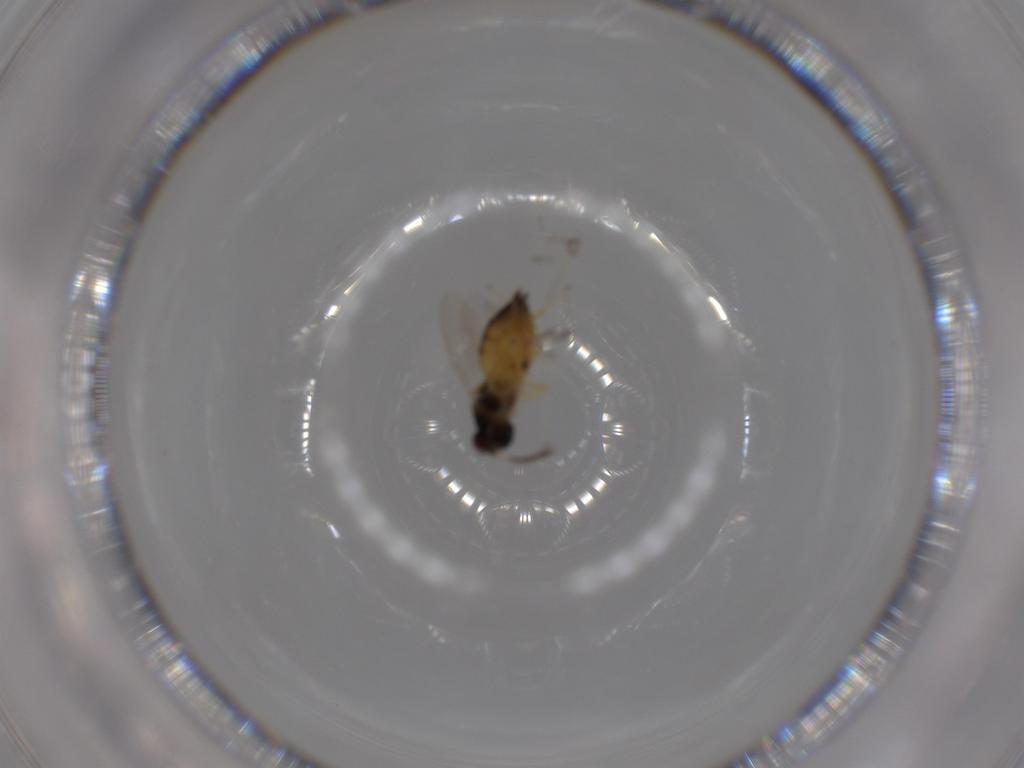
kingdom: Animalia
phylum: Arthropoda
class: Insecta
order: Hymenoptera
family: Eulophidae
